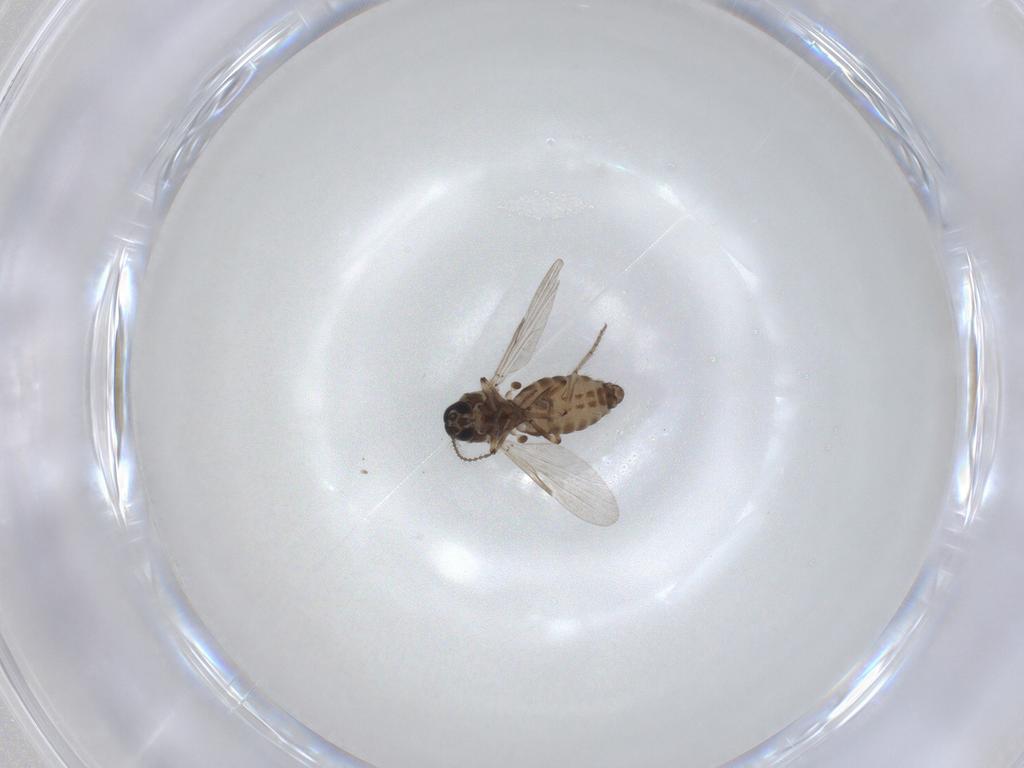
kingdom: Animalia
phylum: Arthropoda
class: Insecta
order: Diptera
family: Ceratopogonidae
